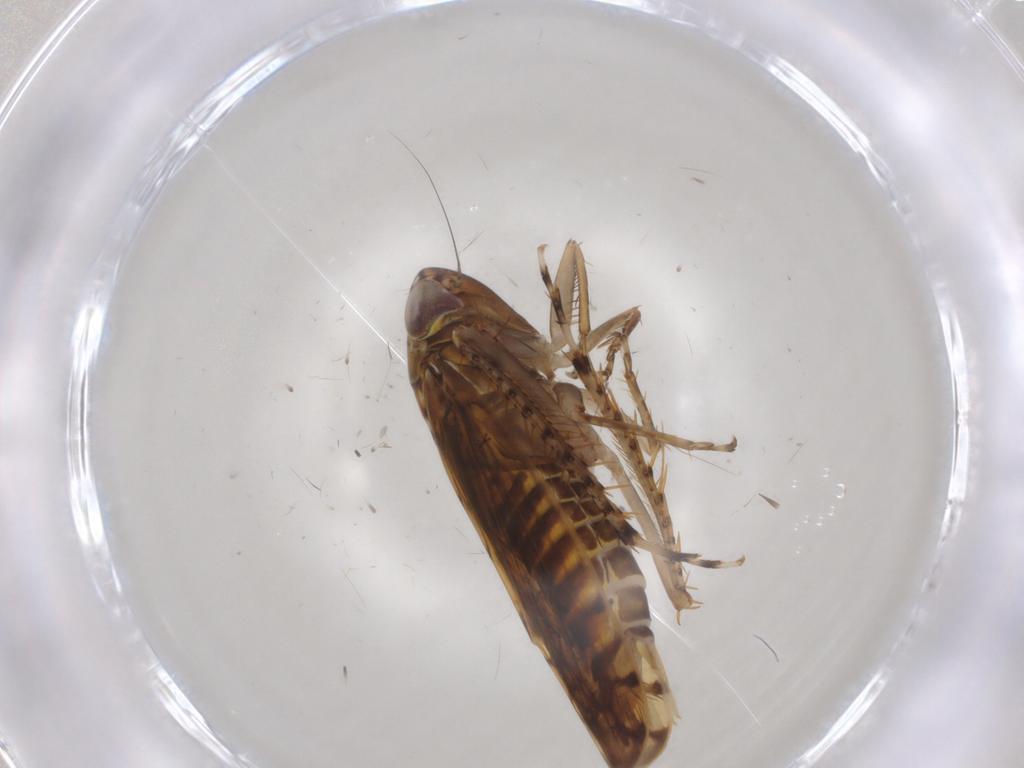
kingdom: Animalia
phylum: Arthropoda
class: Insecta
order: Hemiptera
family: Cicadellidae
